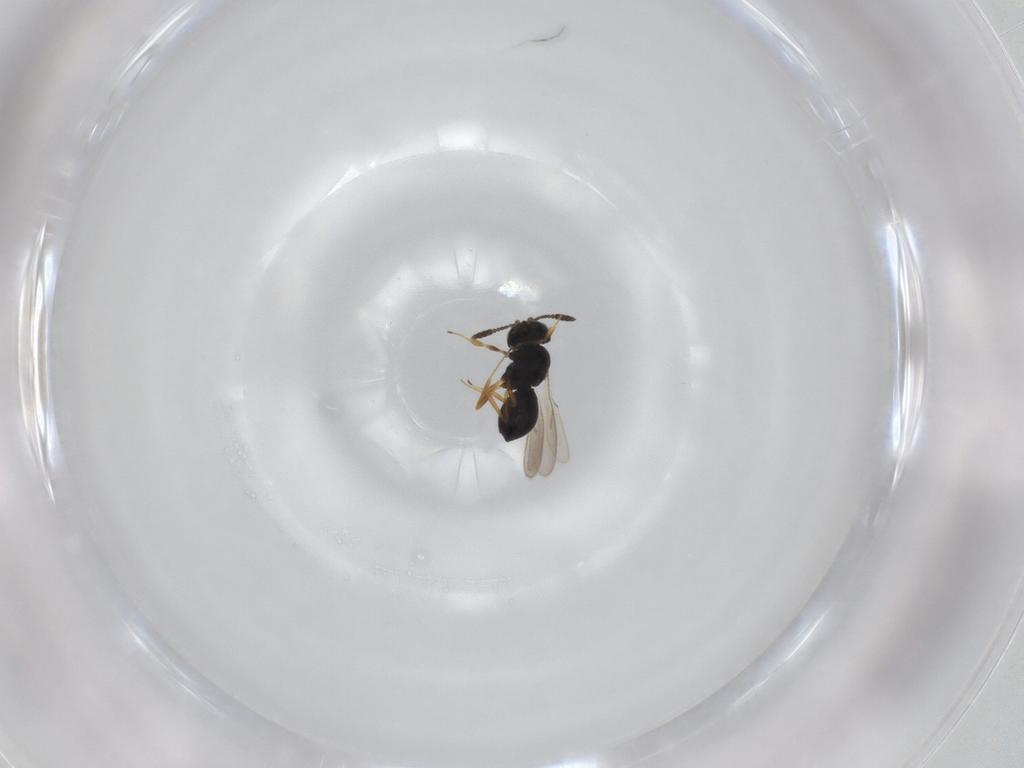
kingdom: Animalia
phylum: Arthropoda
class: Insecta
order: Hymenoptera
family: Scelionidae
